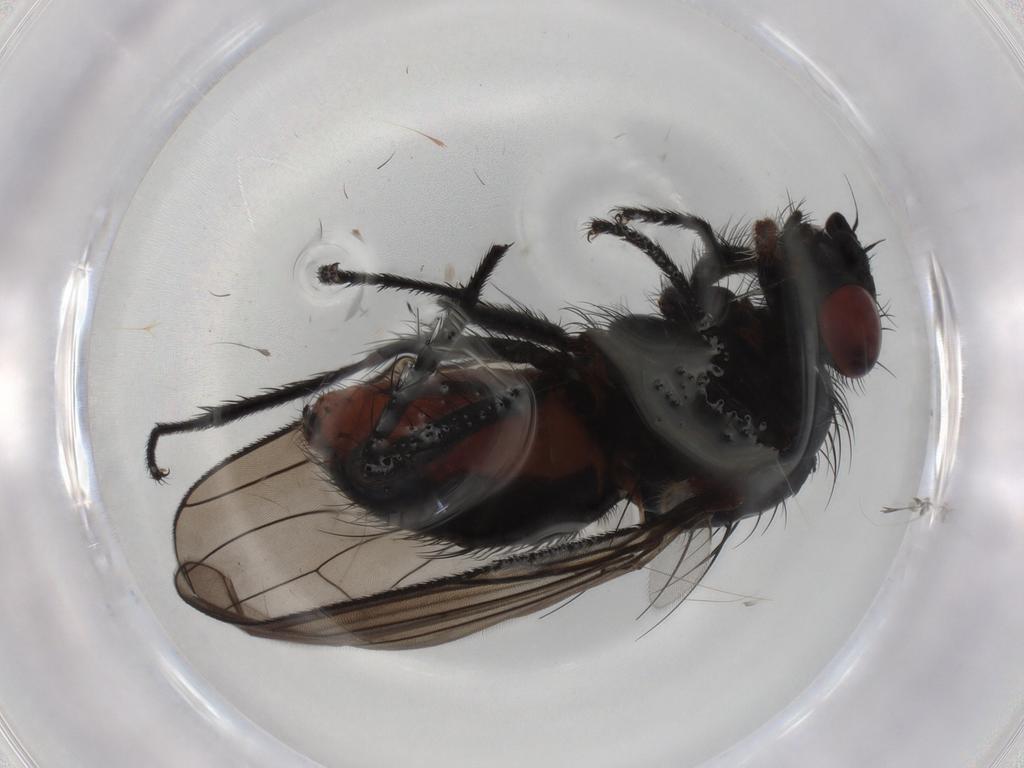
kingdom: Animalia
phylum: Arthropoda
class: Insecta
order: Diptera
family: Anthomyiidae
